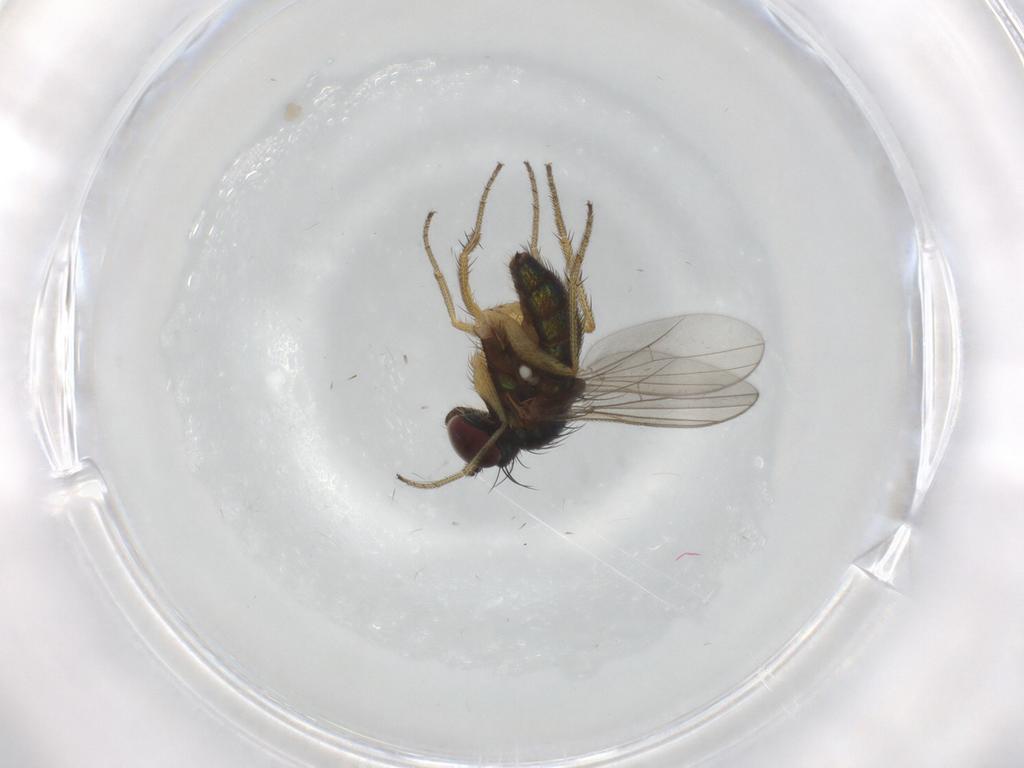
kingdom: Animalia
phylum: Arthropoda
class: Insecta
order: Diptera
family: Dolichopodidae
